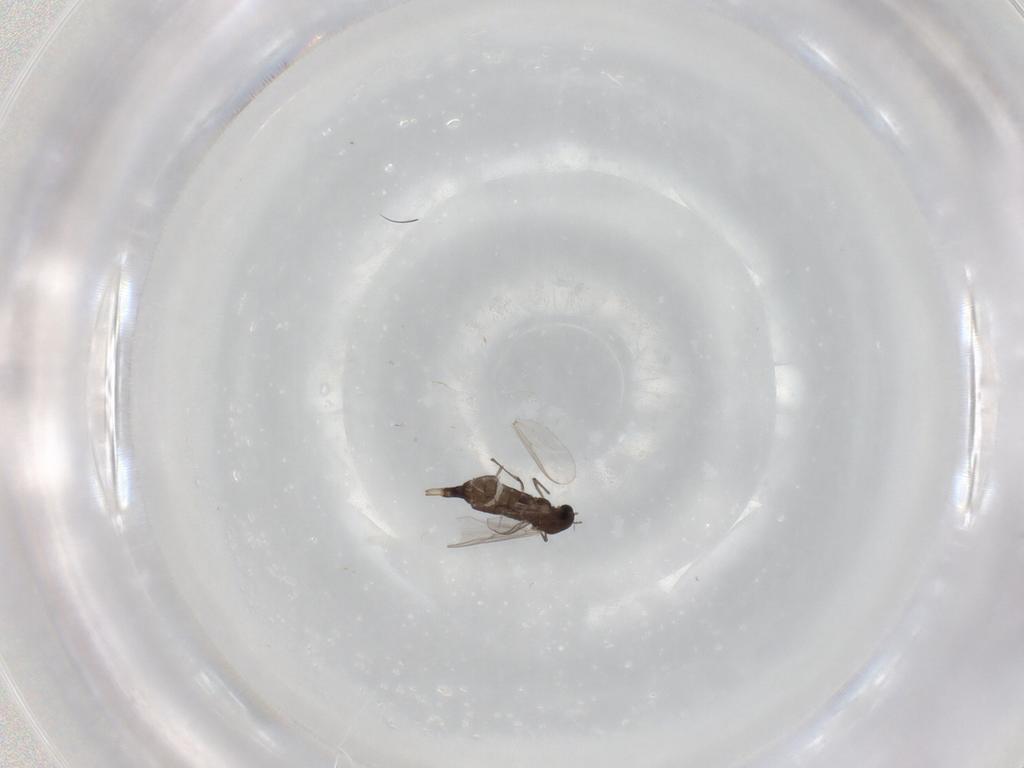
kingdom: Animalia
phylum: Arthropoda
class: Insecta
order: Diptera
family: Chironomidae
